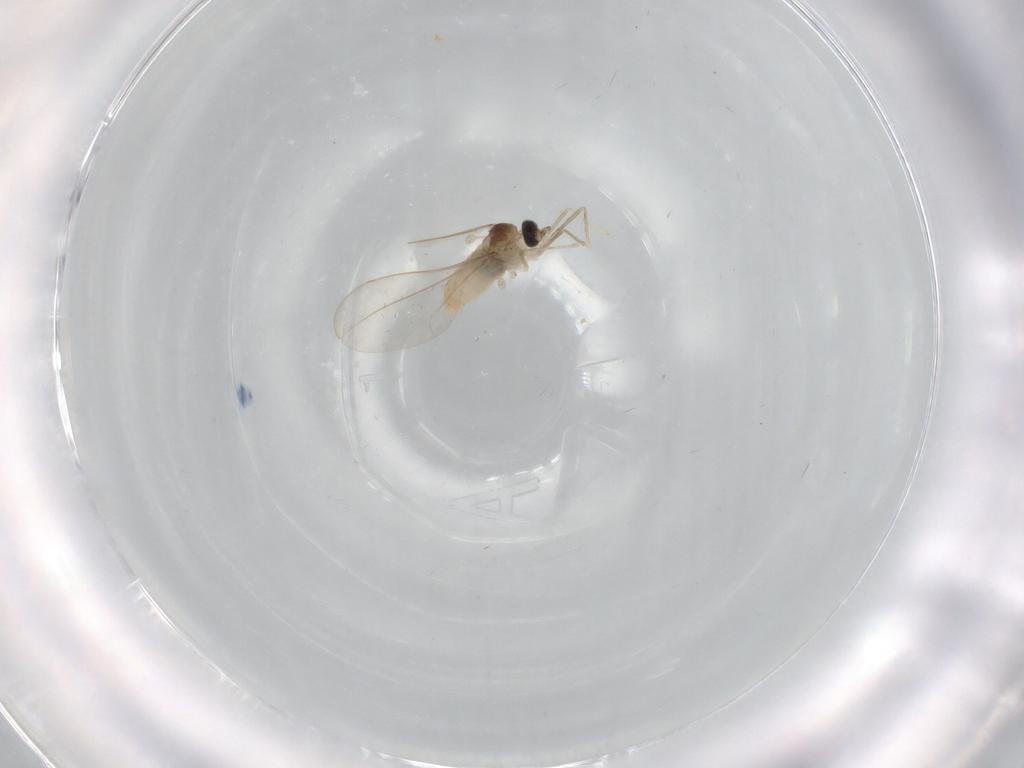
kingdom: Animalia
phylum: Arthropoda
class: Insecta
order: Diptera
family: Cecidomyiidae
